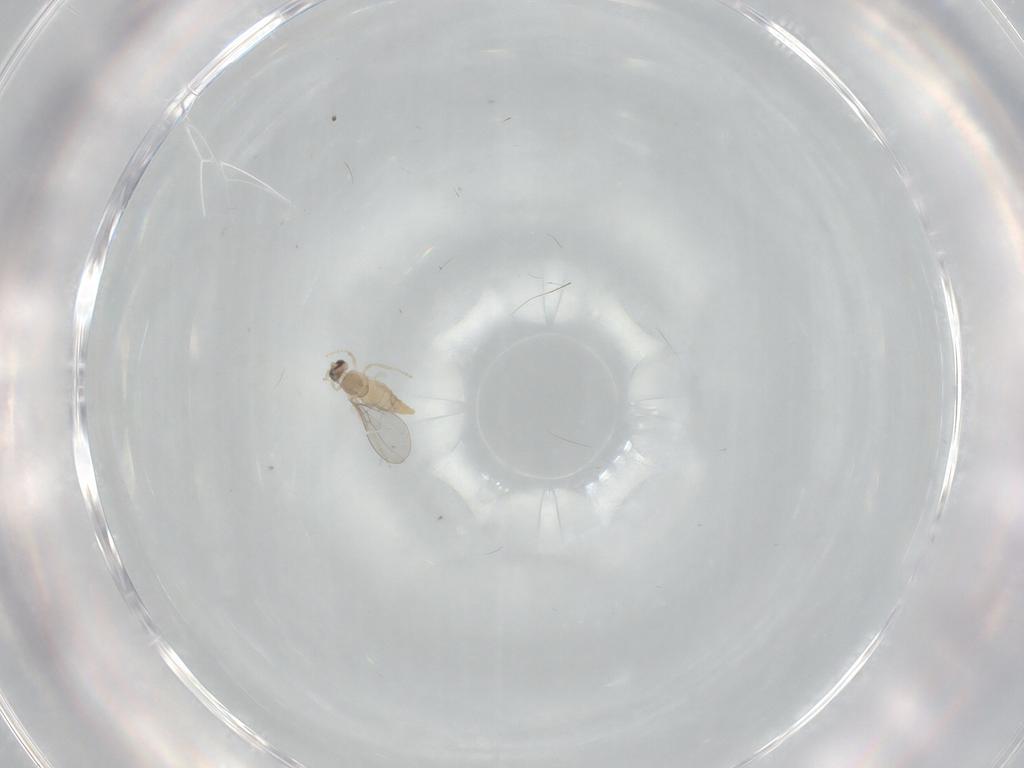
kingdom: Animalia
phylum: Arthropoda
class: Insecta
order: Diptera
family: Cecidomyiidae
